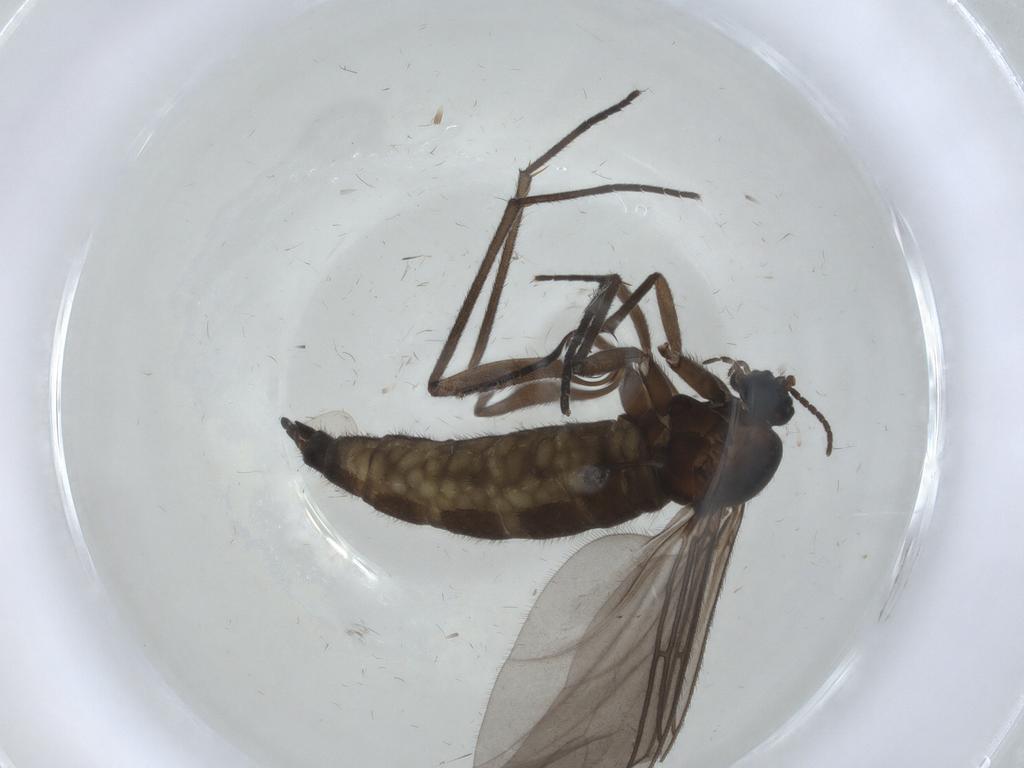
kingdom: Animalia
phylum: Arthropoda
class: Insecta
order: Diptera
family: Sciaridae
